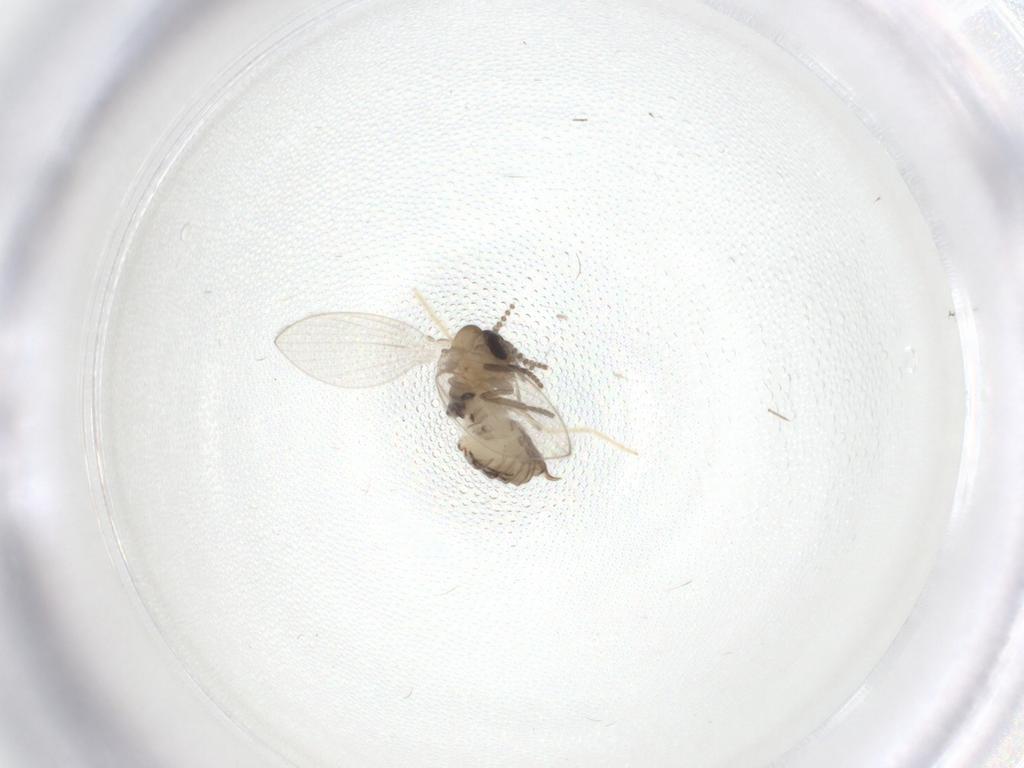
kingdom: Animalia
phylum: Arthropoda
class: Insecta
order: Diptera
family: Psychodidae
